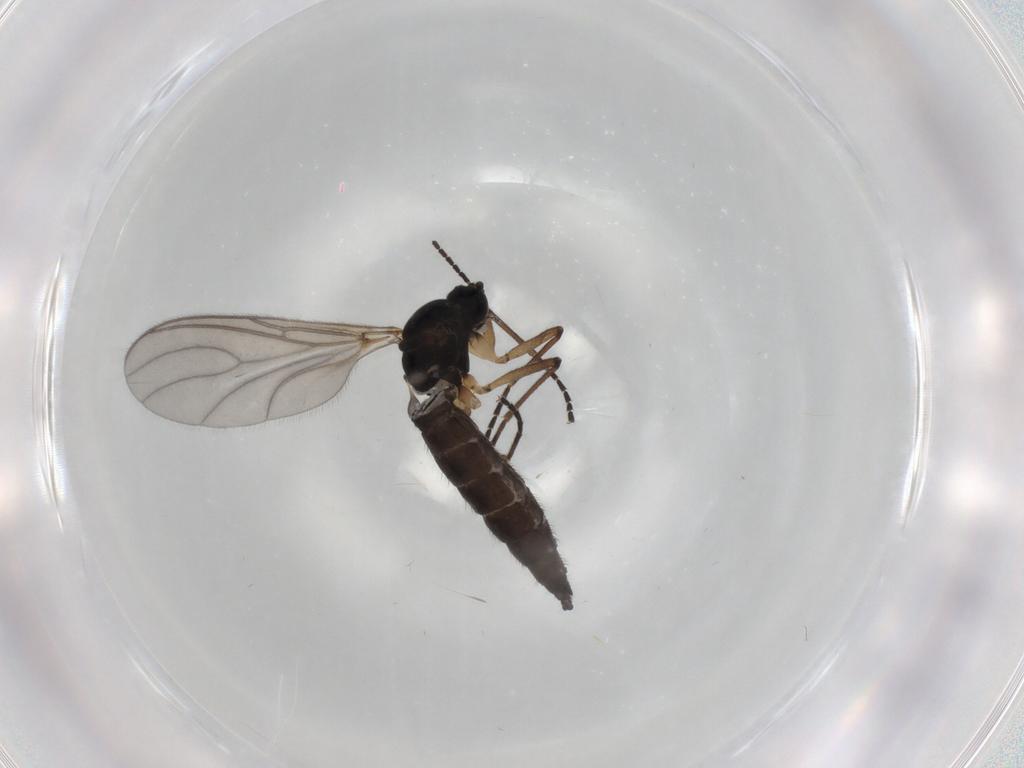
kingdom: Animalia
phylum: Arthropoda
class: Insecta
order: Diptera
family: Sciaridae
